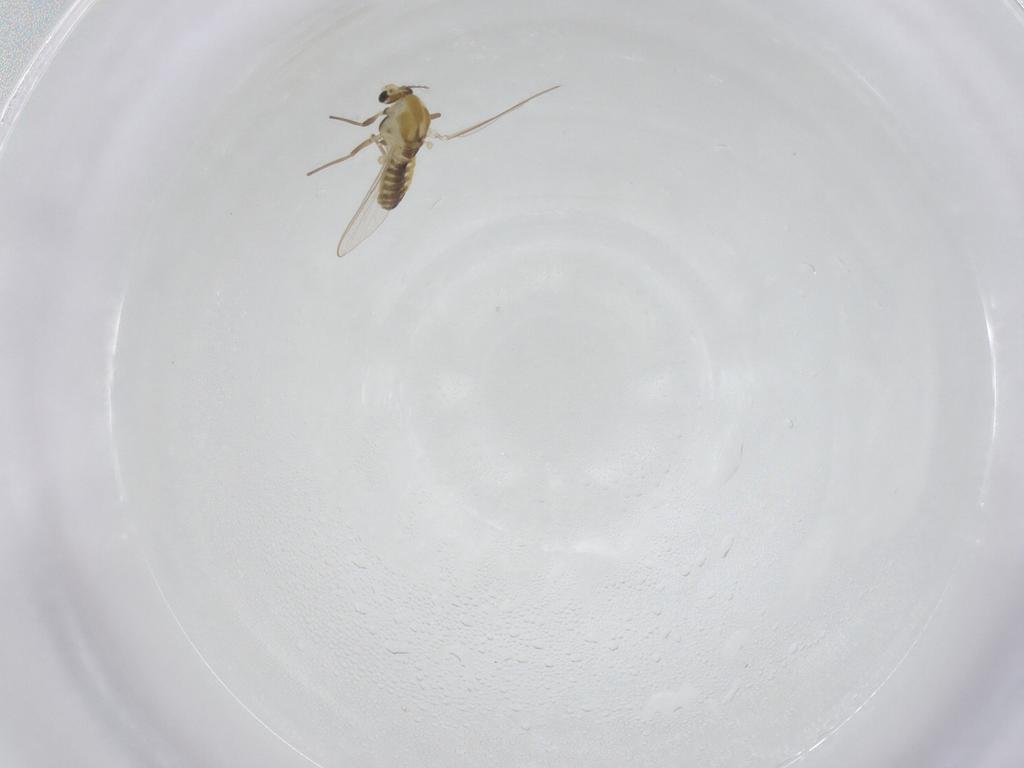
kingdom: Animalia
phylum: Arthropoda
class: Insecta
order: Diptera
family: Chironomidae
